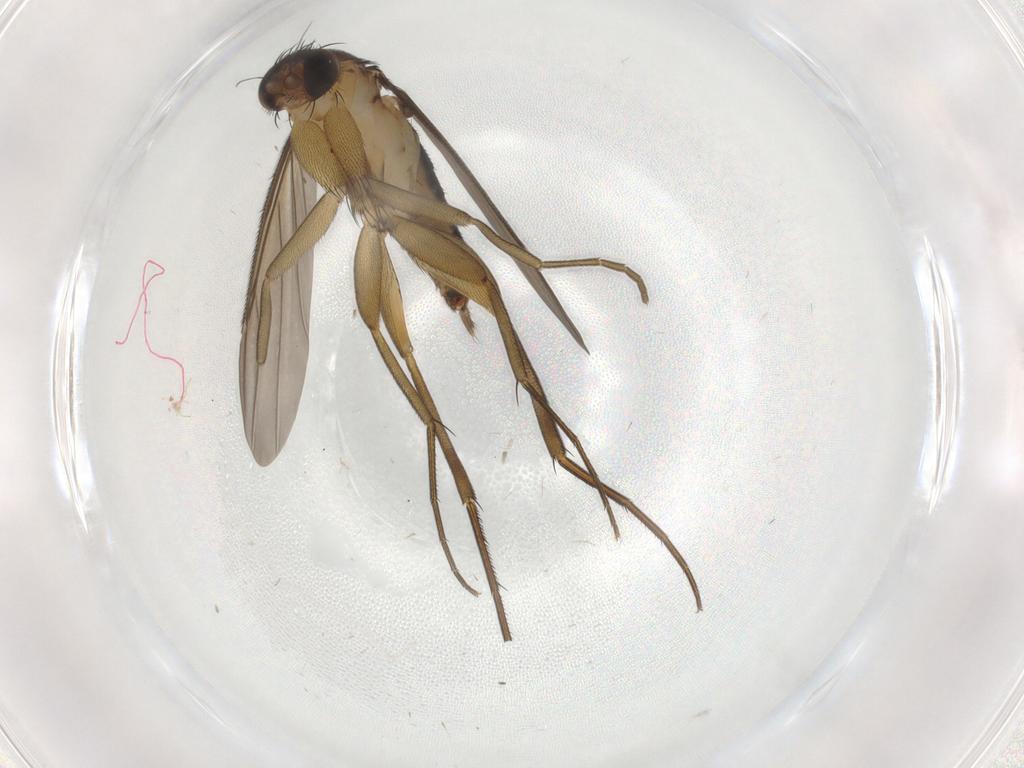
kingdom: Animalia
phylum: Arthropoda
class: Insecta
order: Diptera
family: Phoridae
